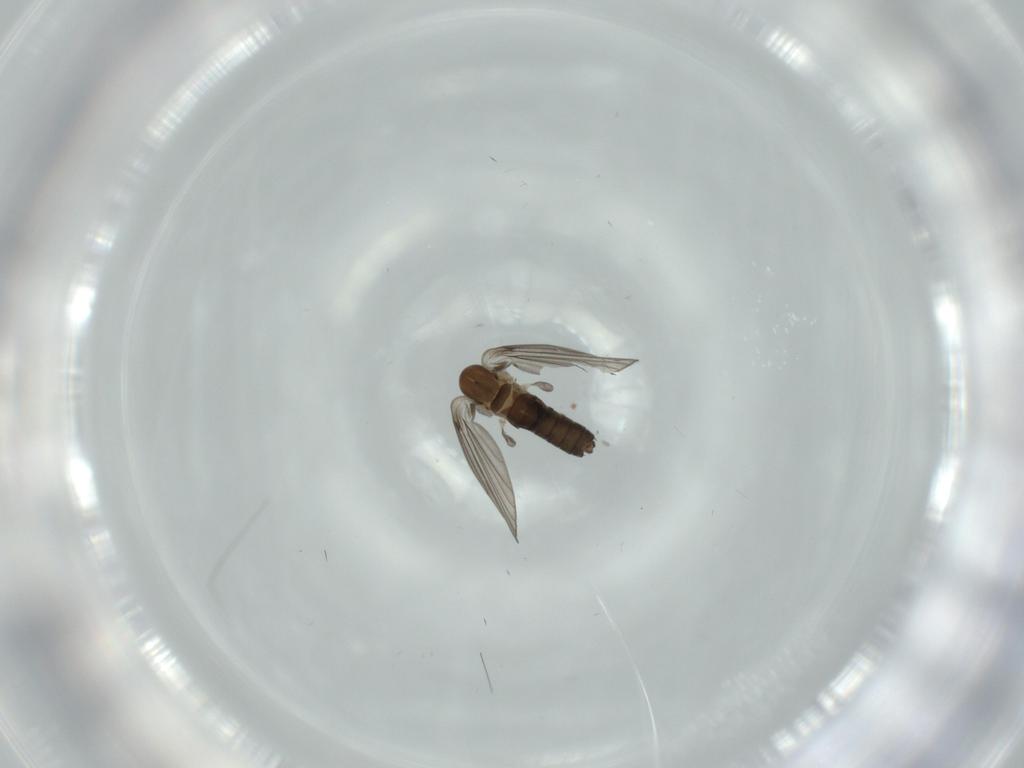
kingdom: Animalia
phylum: Arthropoda
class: Insecta
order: Diptera
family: Psychodidae
